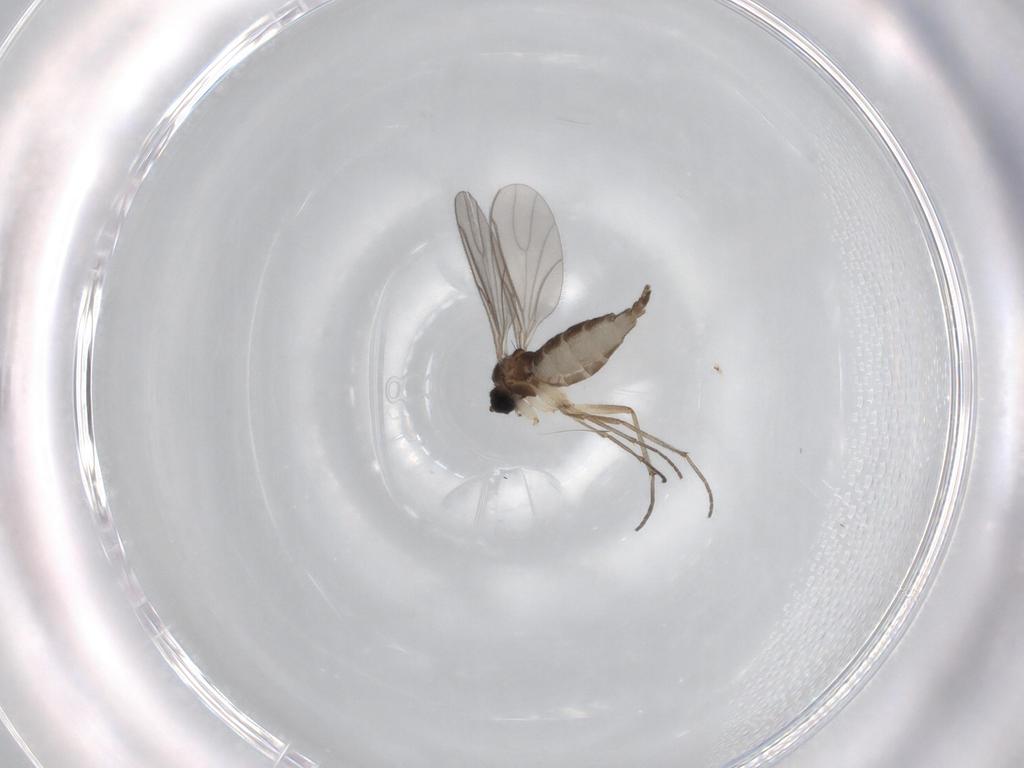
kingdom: Animalia
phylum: Arthropoda
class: Insecta
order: Diptera
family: Sciaridae
